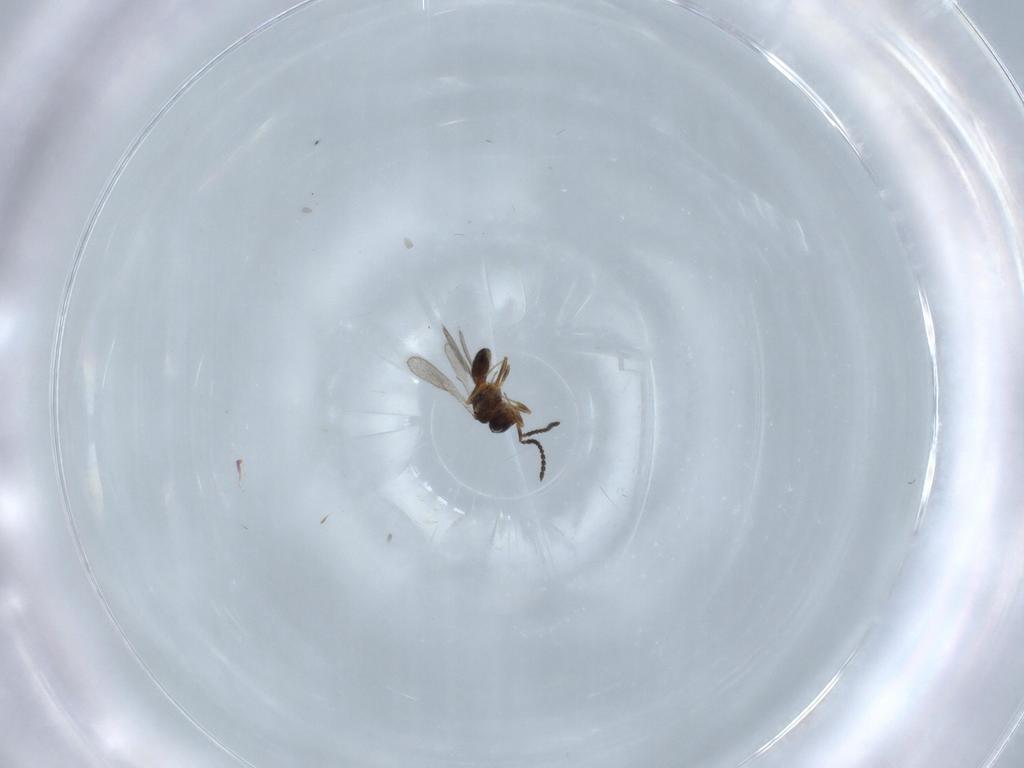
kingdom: Animalia
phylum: Arthropoda
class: Insecta
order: Hymenoptera
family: Scelionidae
